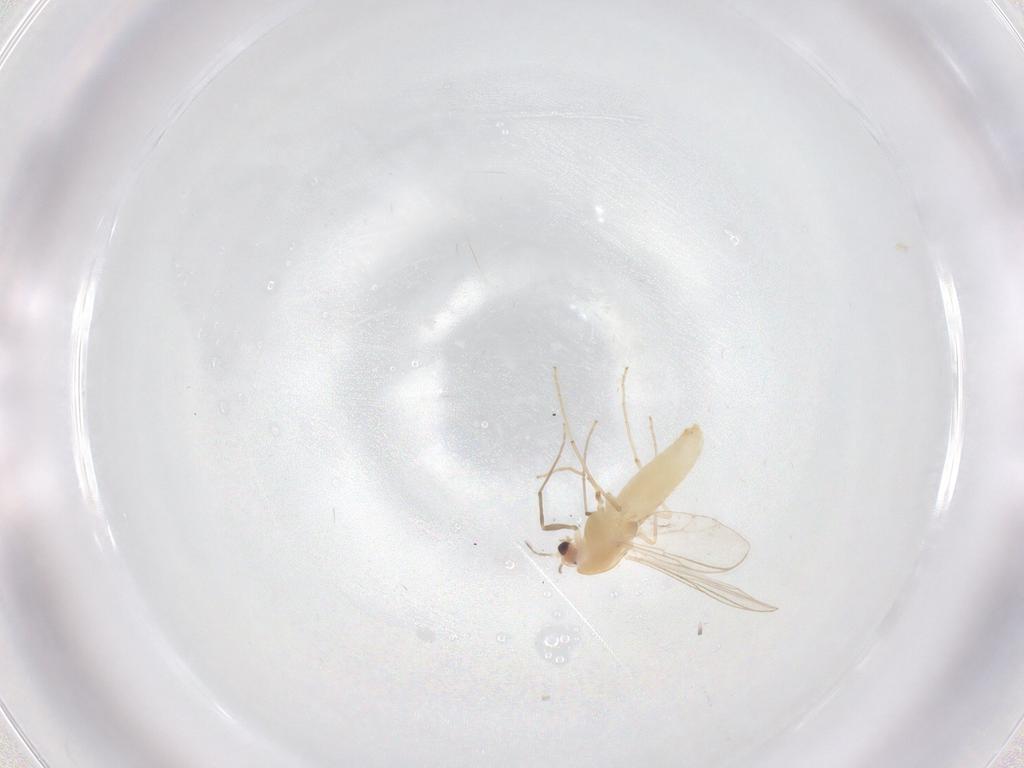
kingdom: Animalia
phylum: Arthropoda
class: Insecta
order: Diptera
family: Chironomidae
